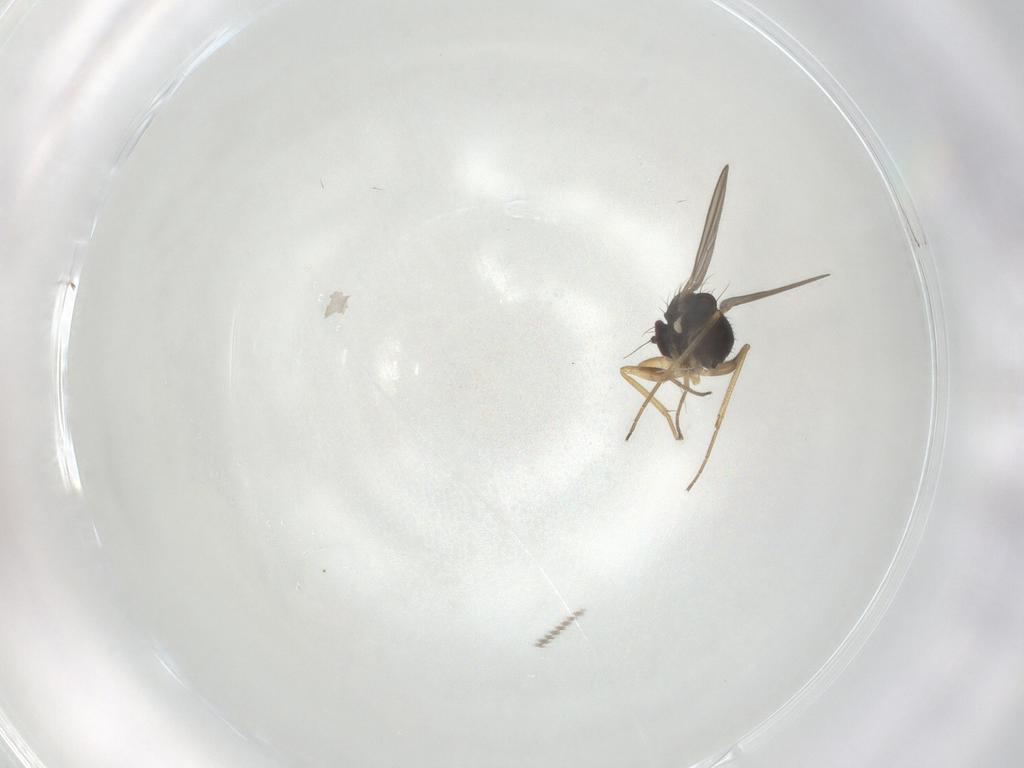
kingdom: Animalia
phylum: Arthropoda
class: Insecta
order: Diptera
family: Dolichopodidae
